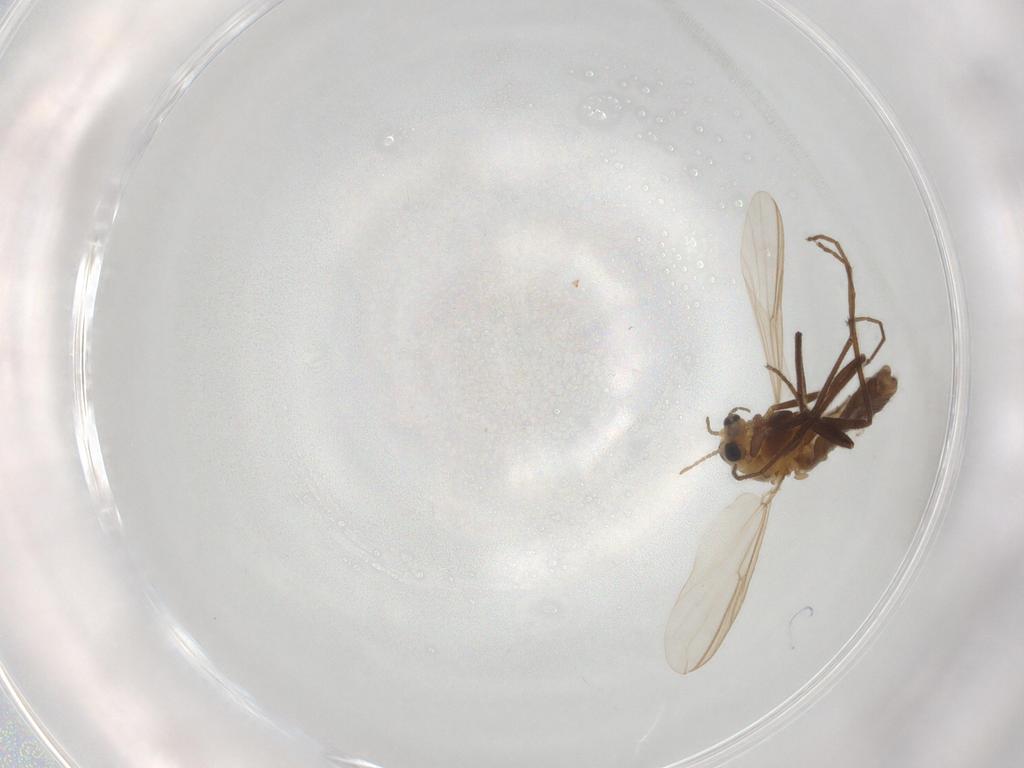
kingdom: Animalia
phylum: Arthropoda
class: Insecta
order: Diptera
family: Chironomidae
